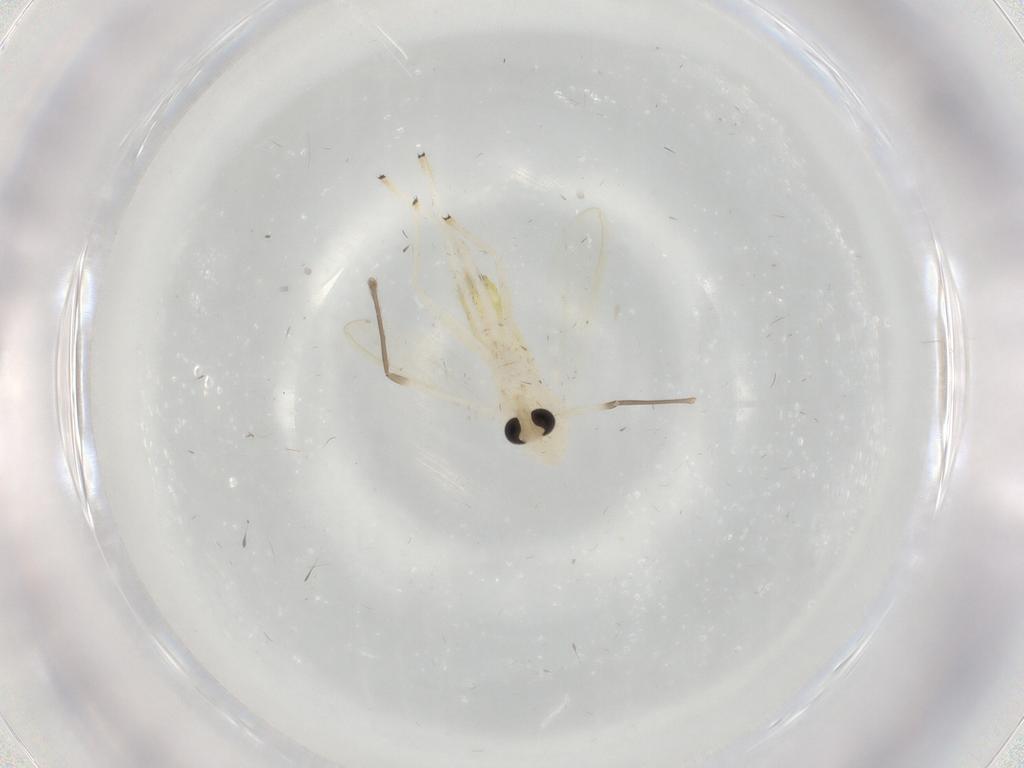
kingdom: Animalia
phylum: Arthropoda
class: Insecta
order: Diptera
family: Chironomidae
